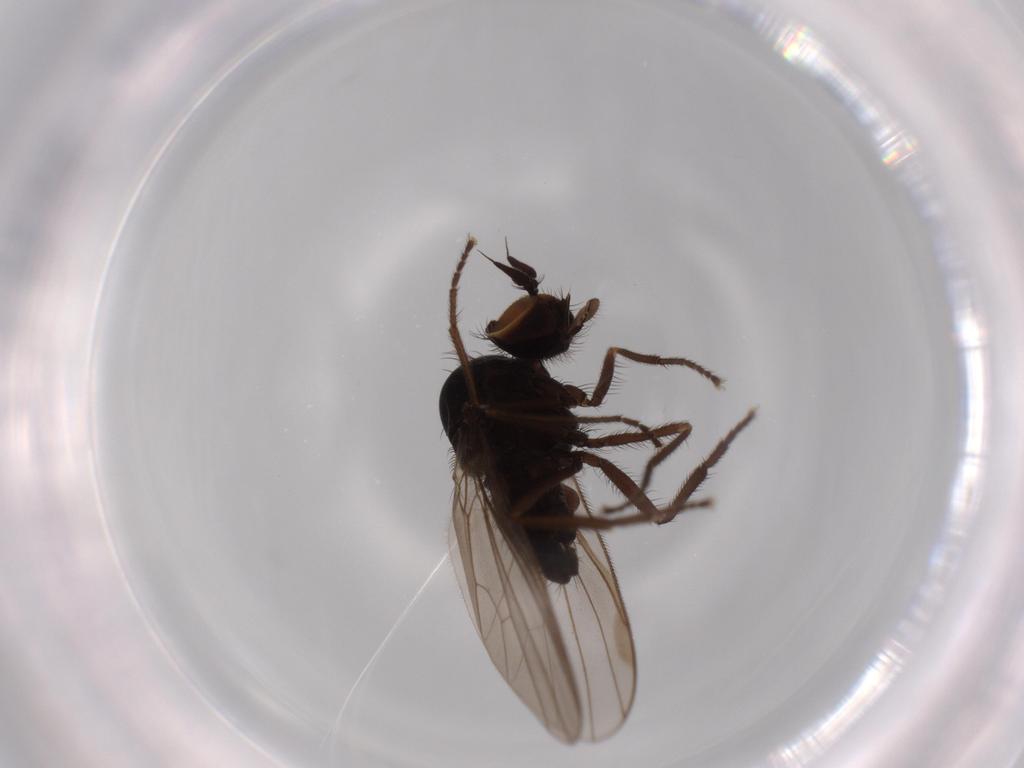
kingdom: Animalia
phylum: Arthropoda
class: Insecta
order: Diptera
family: Dolichopodidae
